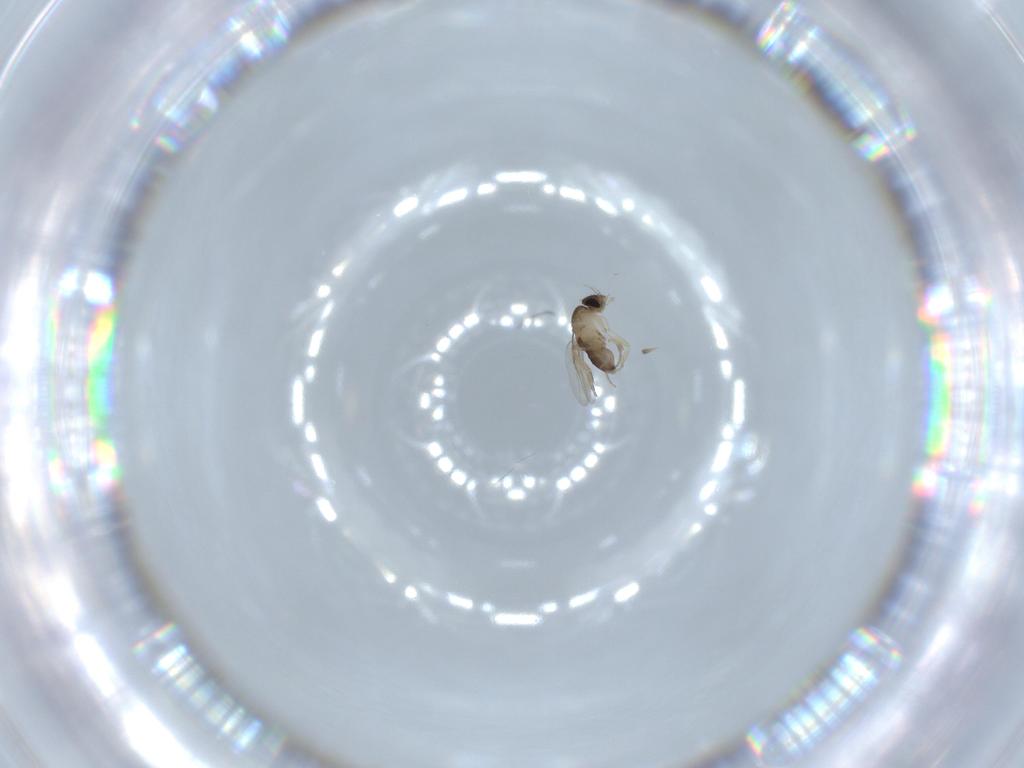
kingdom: Animalia
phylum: Arthropoda
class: Insecta
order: Diptera
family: Phoridae
